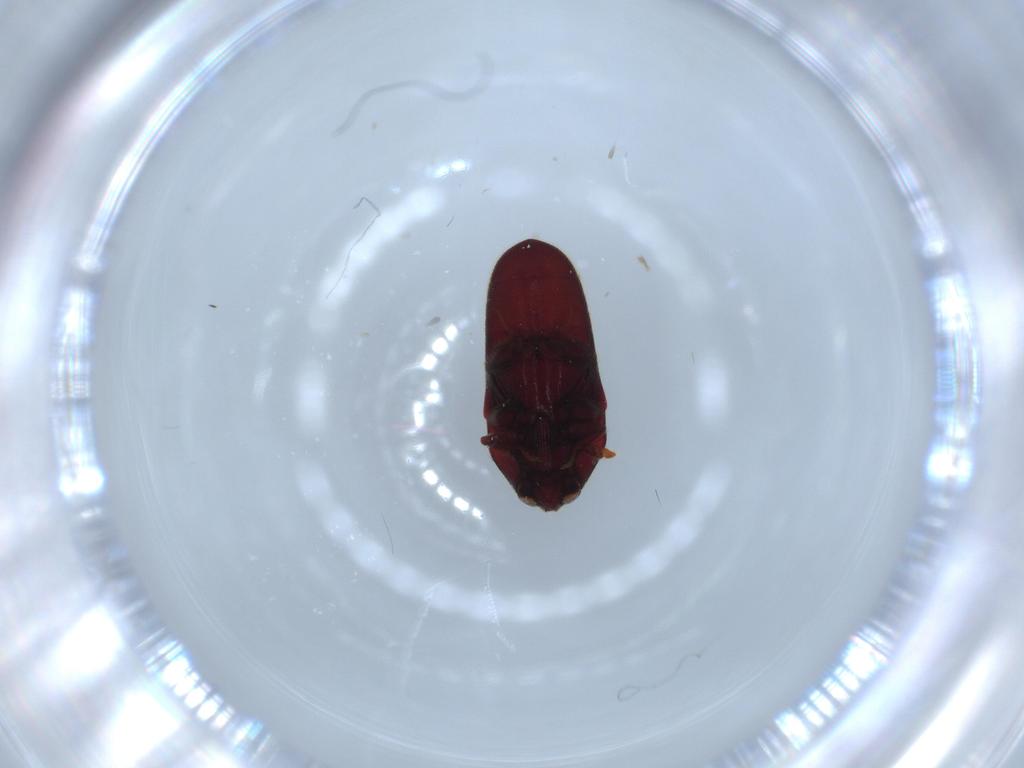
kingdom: Animalia
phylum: Arthropoda
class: Insecta
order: Coleoptera
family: Throscidae
